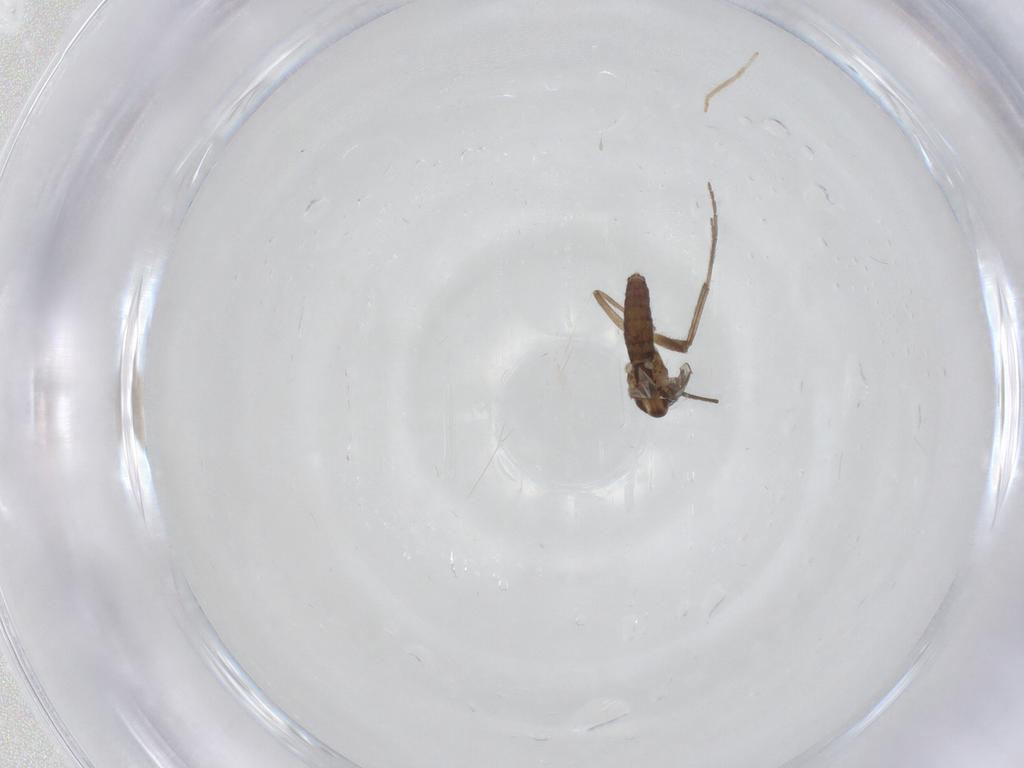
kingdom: Animalia
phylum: Arthropoda
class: Insecta
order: Diptera
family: Chironomidae
